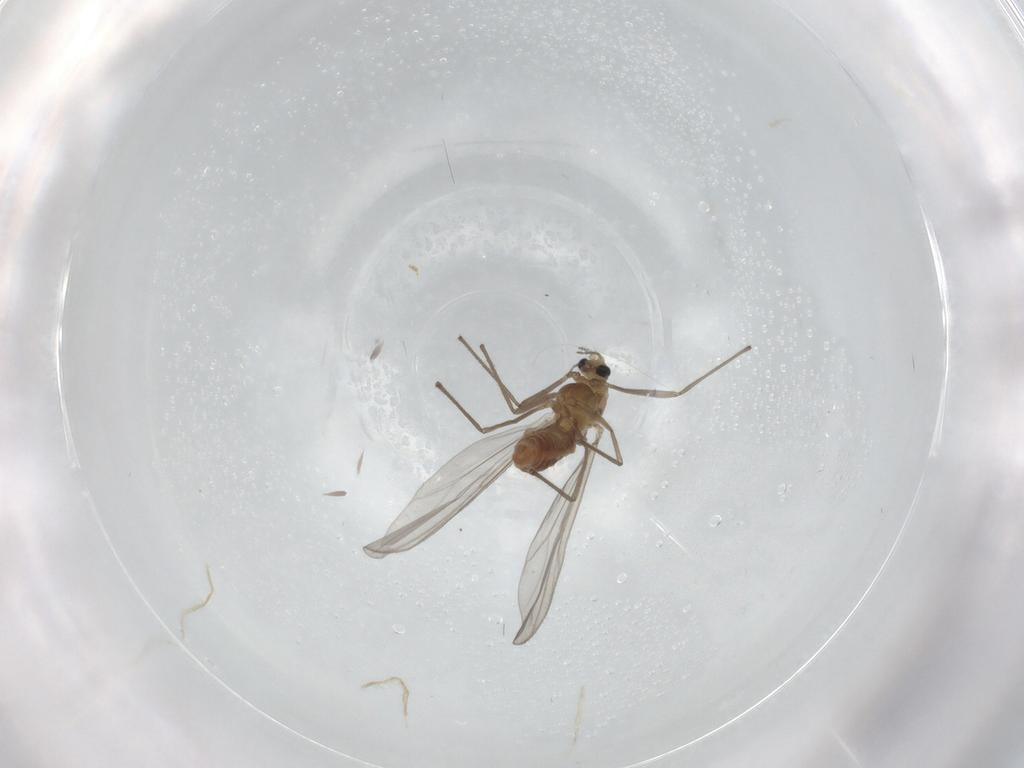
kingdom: Animalia
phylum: Arthropoda
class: Insecta
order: Diptera
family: Chironomidae
